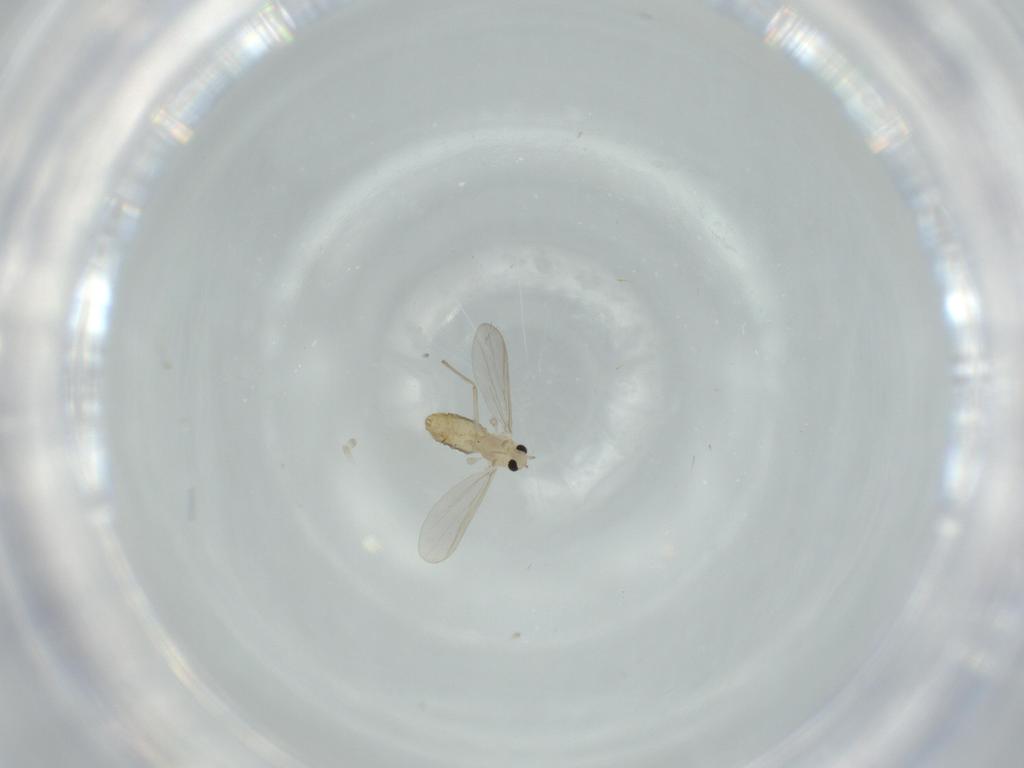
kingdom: Animalia
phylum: Arthropoda
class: Insecta
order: Diptera
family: Chironomidae
